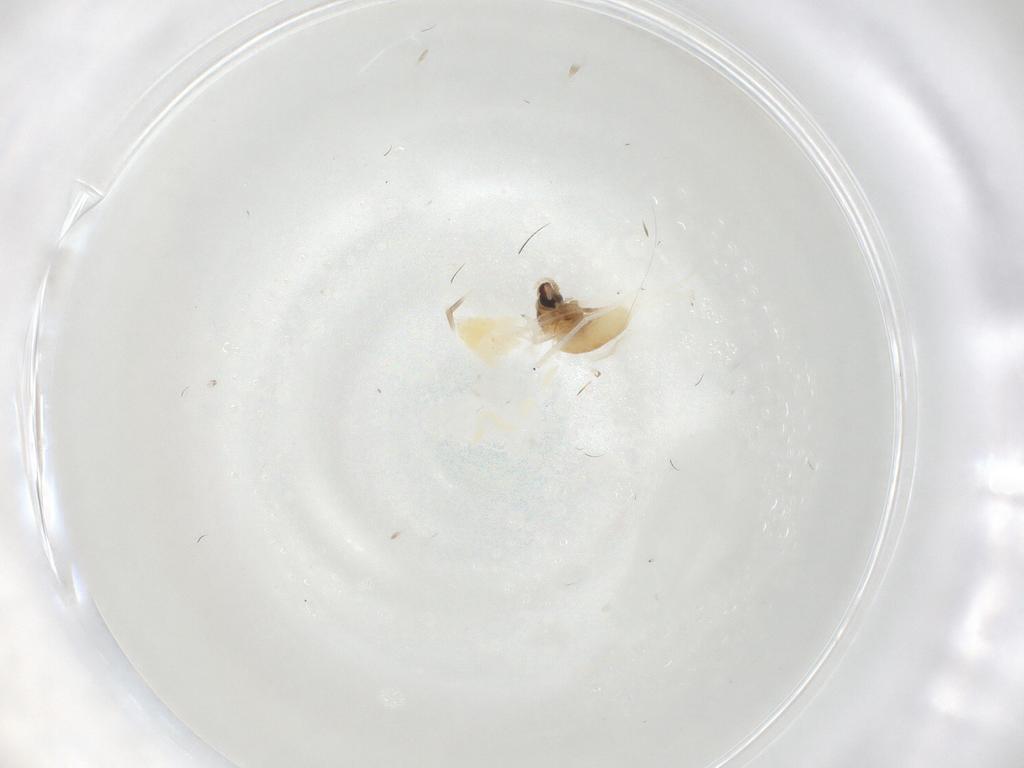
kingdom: Animalia
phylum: Arthropoda
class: Insecta
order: Diptera
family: Cecidomyiidae
